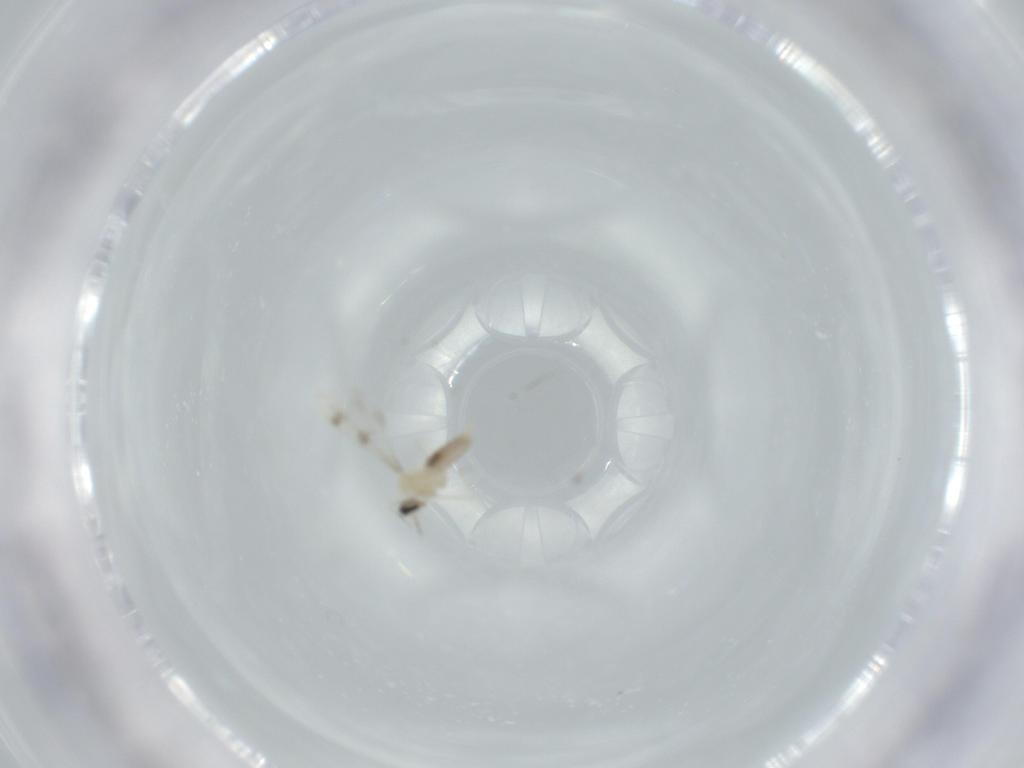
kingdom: Animalia
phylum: Arthropoda
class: Insecta
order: Diptera
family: Cecidomyiidae
